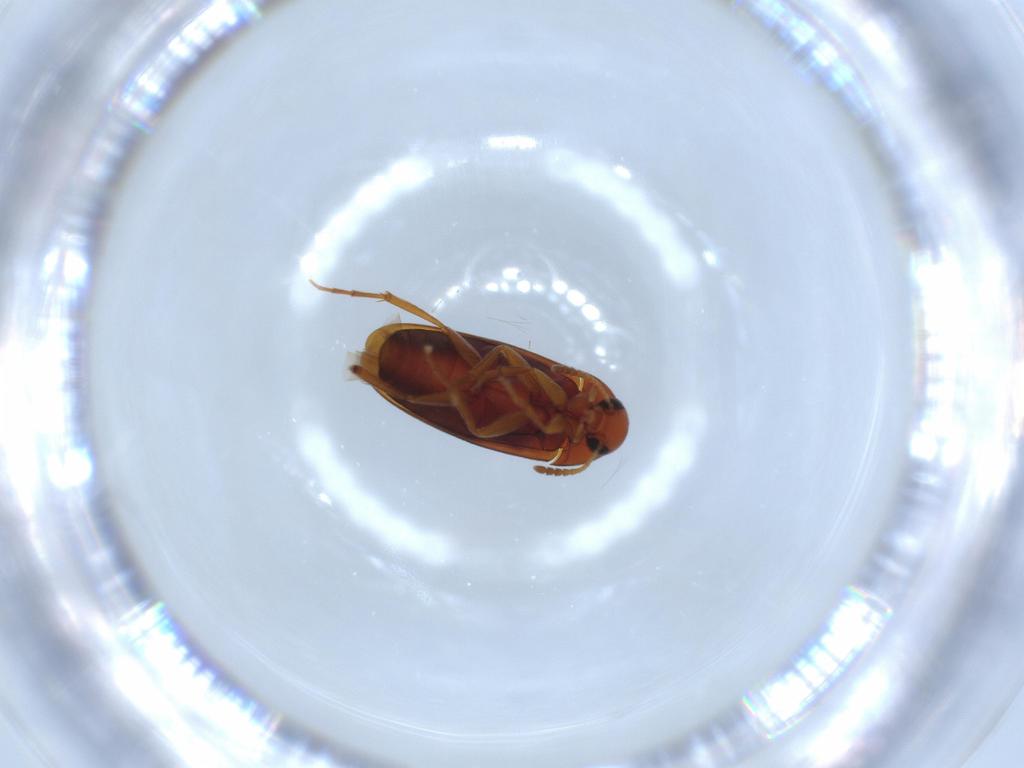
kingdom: Animalia
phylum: Arthropoda
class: Insecta
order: Coleoptera
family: Scraptiidae
